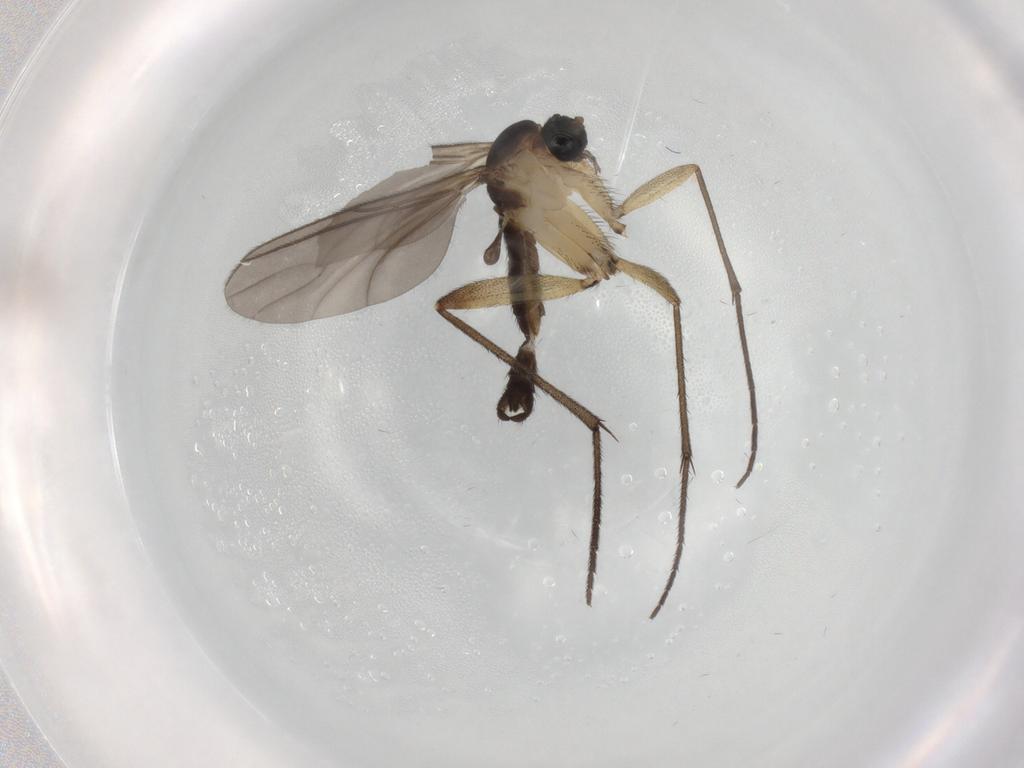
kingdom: Animalia
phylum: Arthropoda
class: Insecta
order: Diptera
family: Sciaridae
